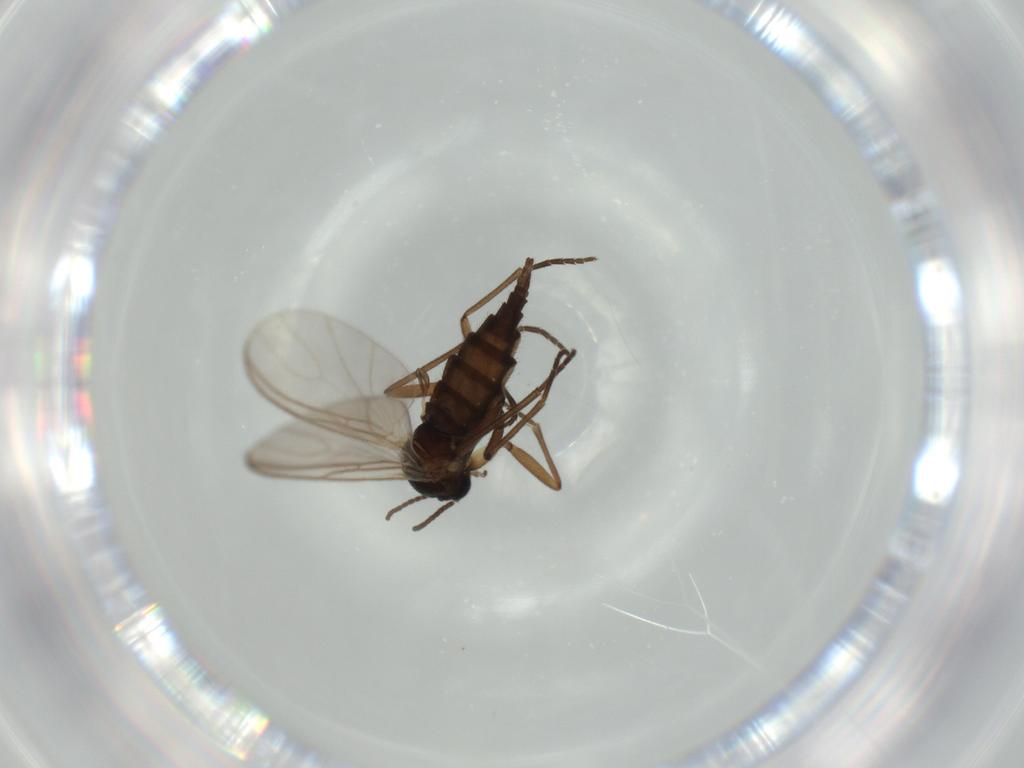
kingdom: Animalia
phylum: Arthropoda
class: Insecta
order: Diptera
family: Sciaridae
